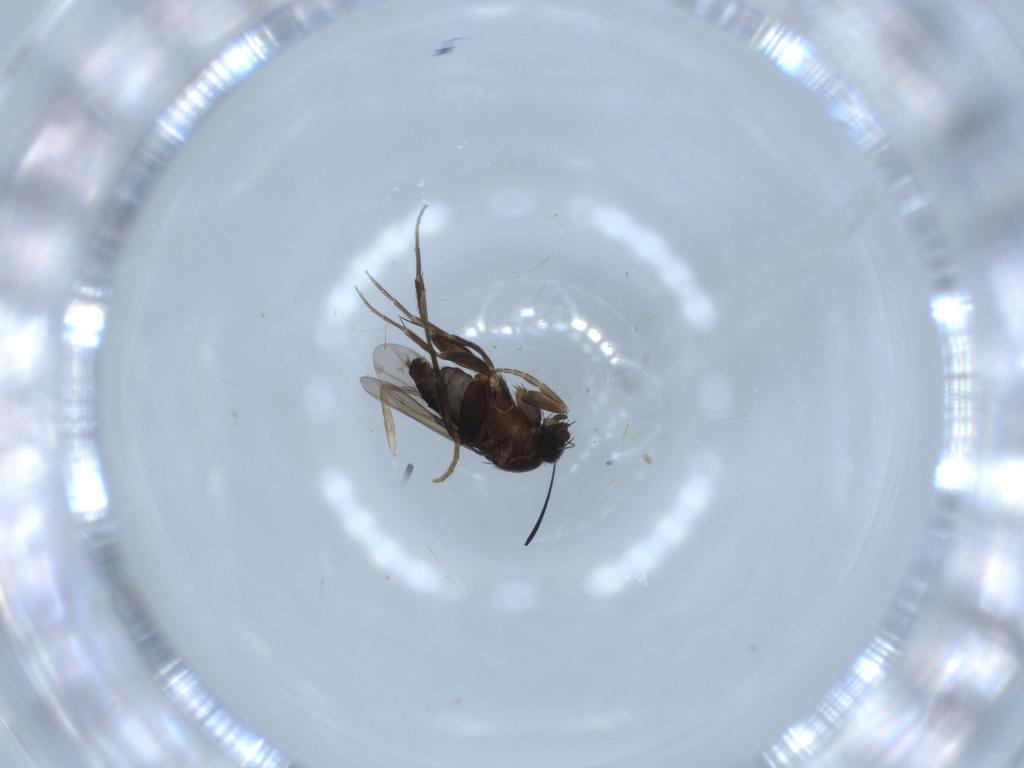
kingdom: Animalia
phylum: Arthropoda
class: Insecta
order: Diptera
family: Psychodidae
